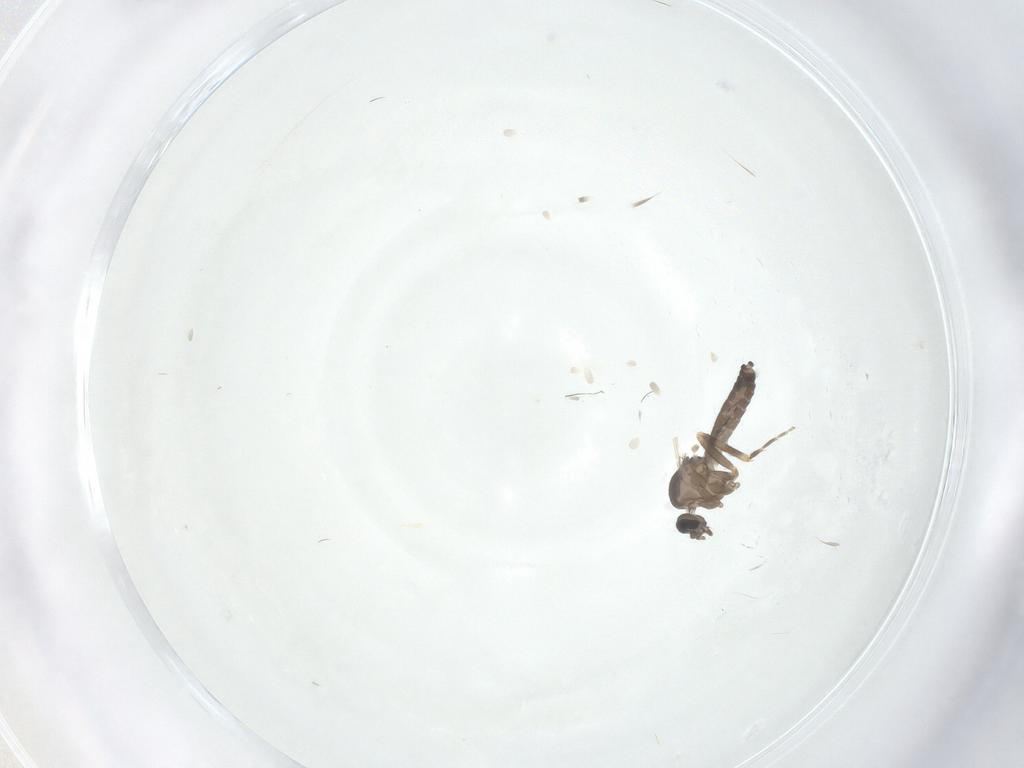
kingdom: Animalia
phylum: Arthropoda
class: Insecta
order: Diptera
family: Ceratopogonidae
